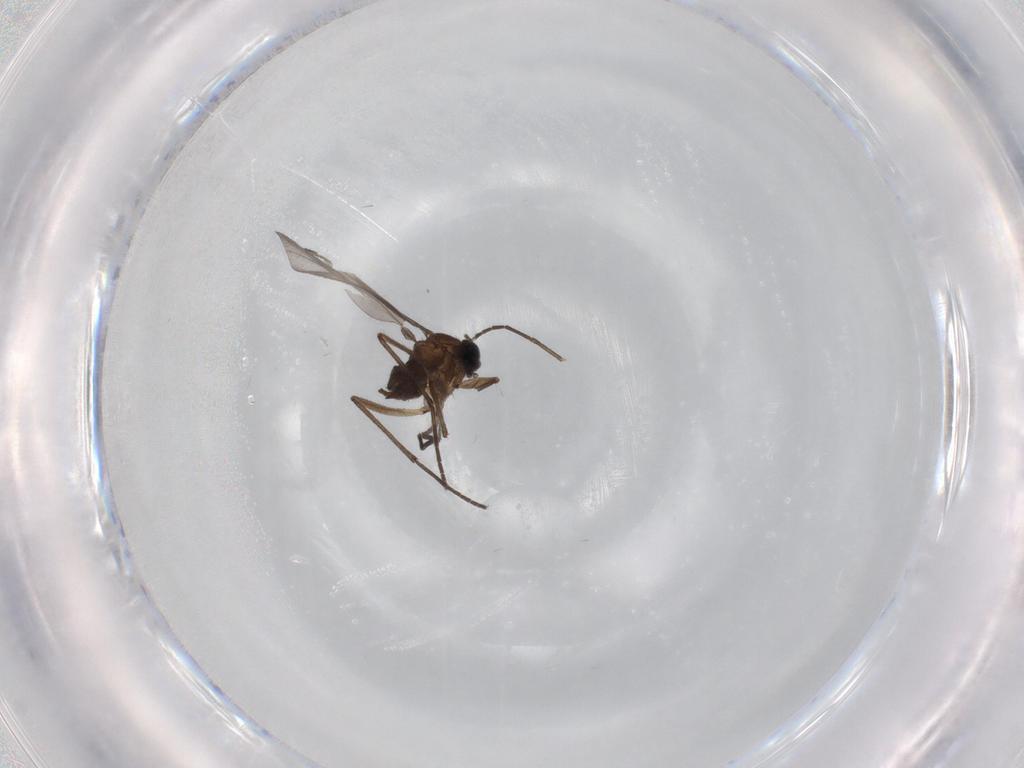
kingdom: Animalia
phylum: Arthropoda
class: Insecta
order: Diptera
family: Sciaridae
